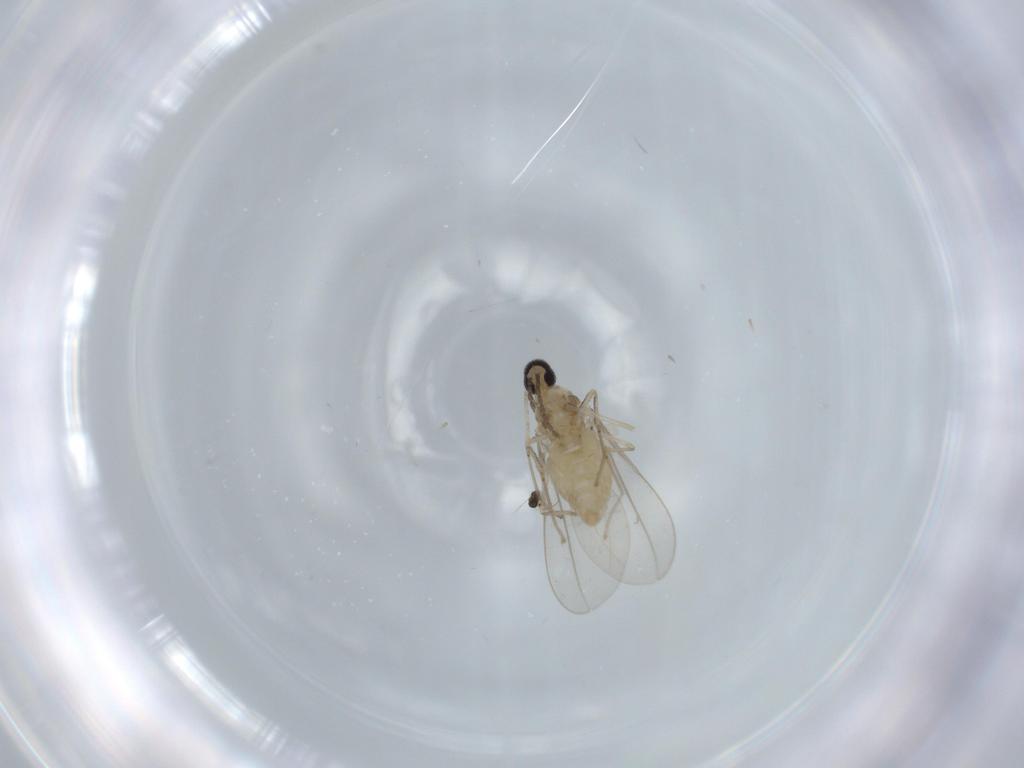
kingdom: Animalia
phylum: Arthropoda
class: Insecta
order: Diptera
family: Cecidomyiidae
